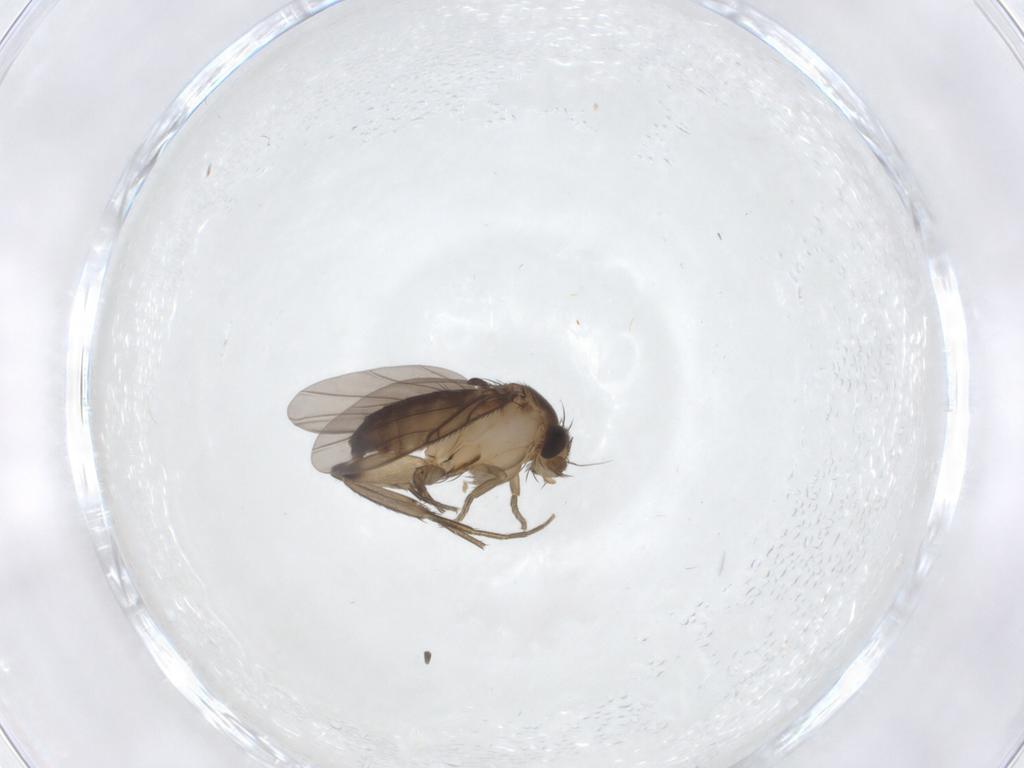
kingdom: Animalia
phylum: Arthropoda
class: Insecta
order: Diptera
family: Phoridae
